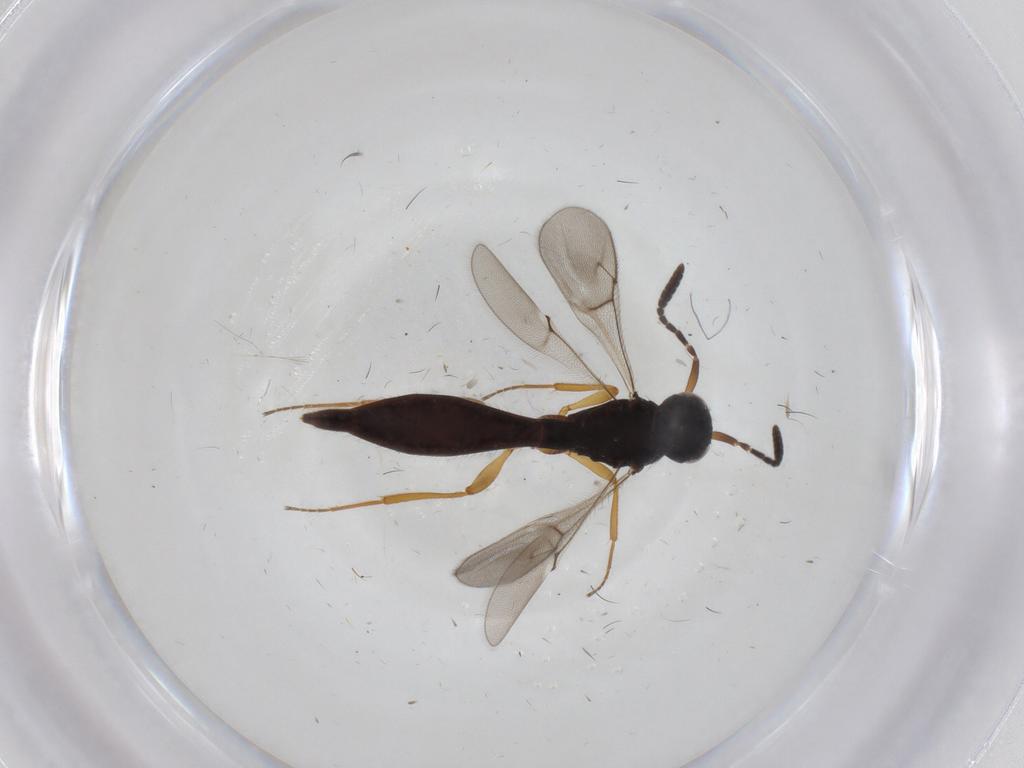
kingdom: Animalia
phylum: Arthropoda
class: Insecta
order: Hymenoptera
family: Scelionidae
